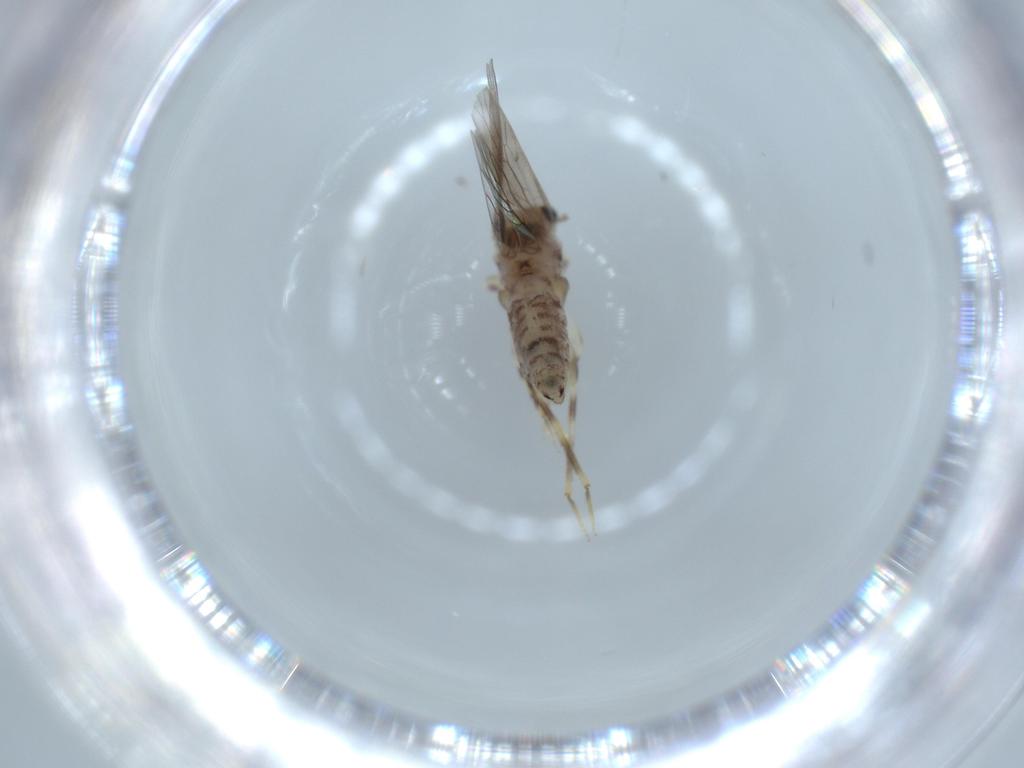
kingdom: Animalia
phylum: Arthropoda
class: Insecta
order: Psocodea
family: Lepidopsocidae
